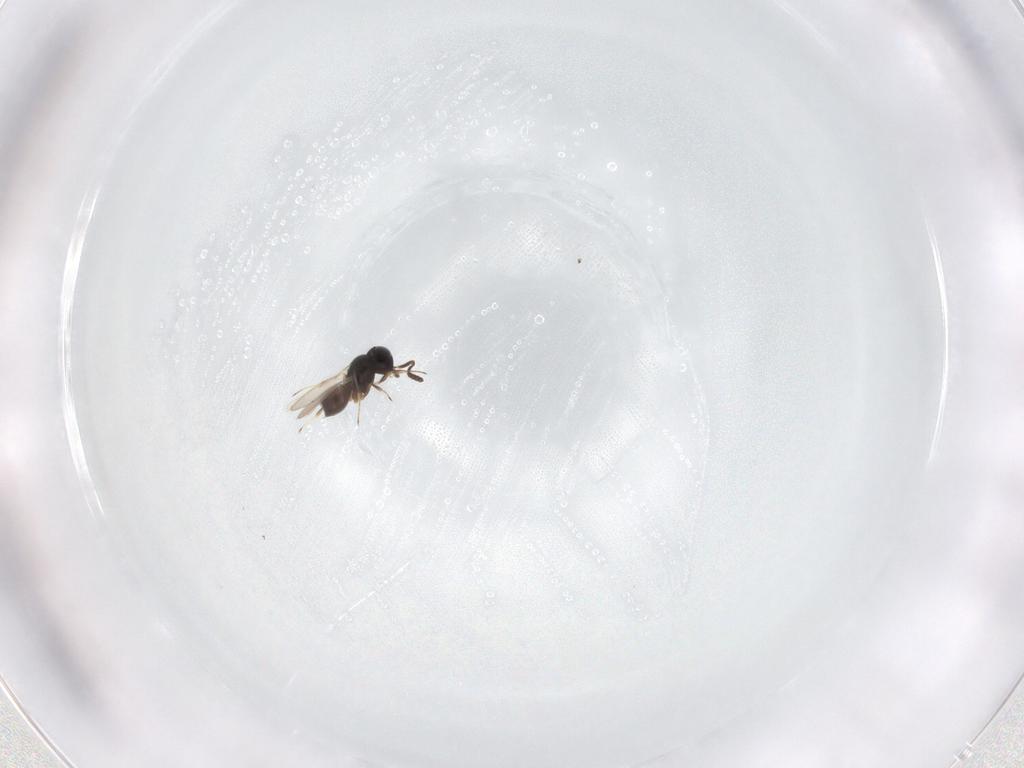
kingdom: Animalia
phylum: Arthropoda
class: Insecta
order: Hymenoptera
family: Scelionidae
